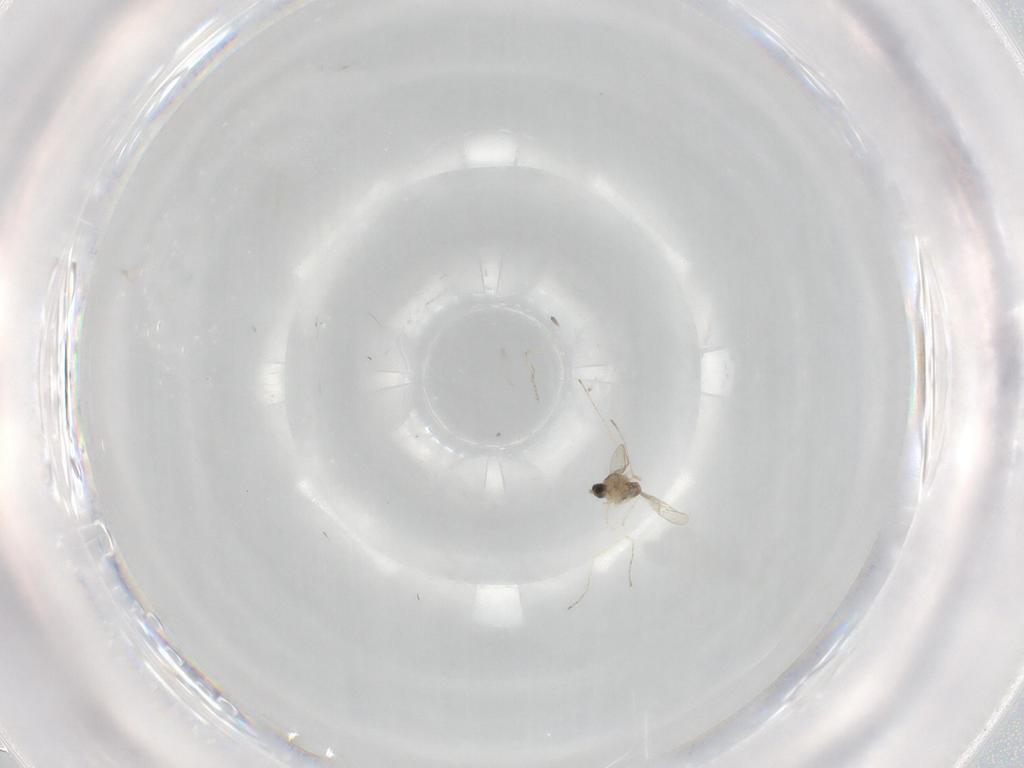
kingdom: Animalia
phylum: Arthropoda
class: Insecta
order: Diptera
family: Cecidomyiidae
